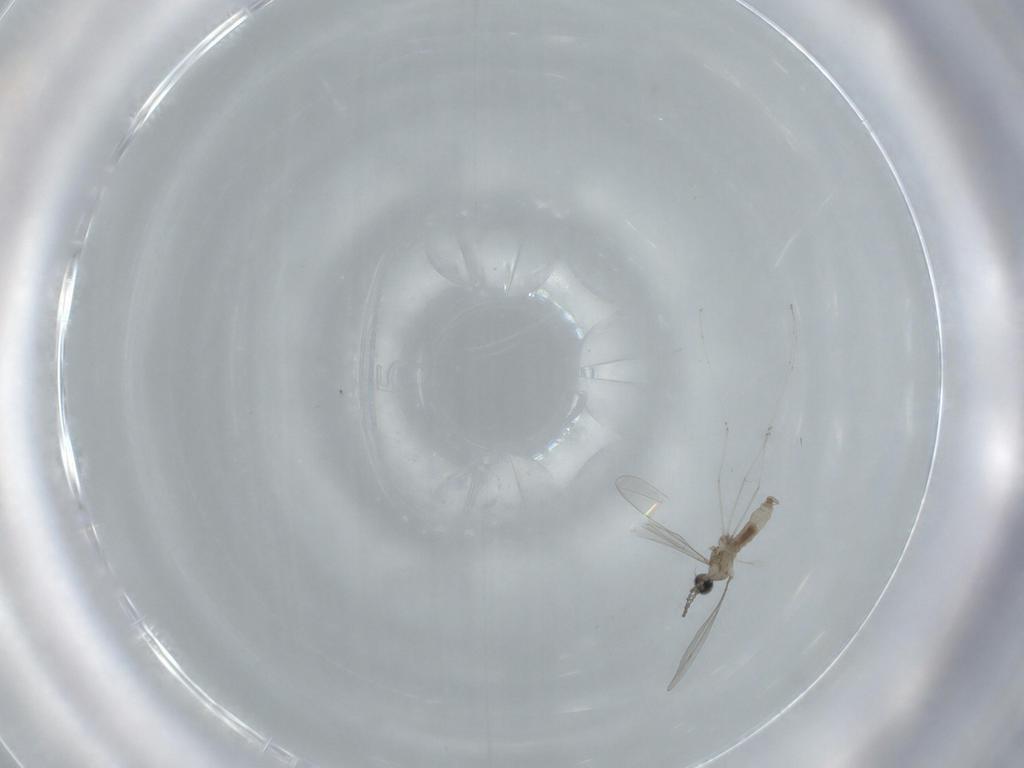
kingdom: Animalia
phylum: Arthropoda
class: Insecta
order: Diptera
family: Cecidomyiidae
